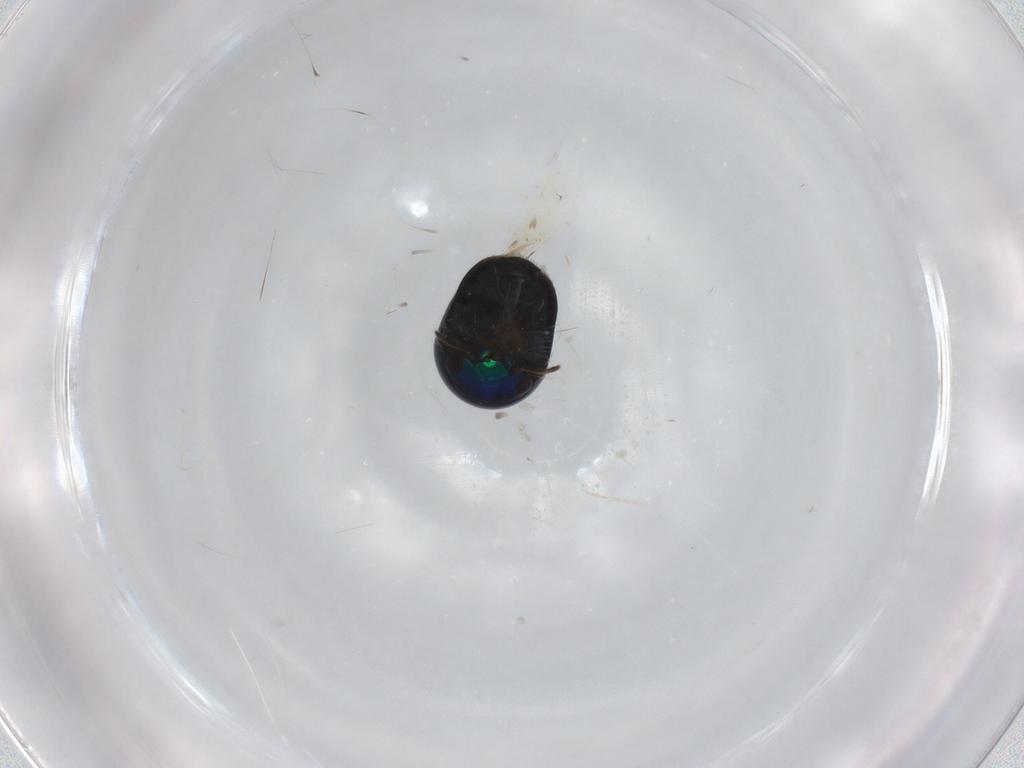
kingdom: Animalia
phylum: Arthropoda
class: Insecta
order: Coleoptera
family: Cybocephalidae
